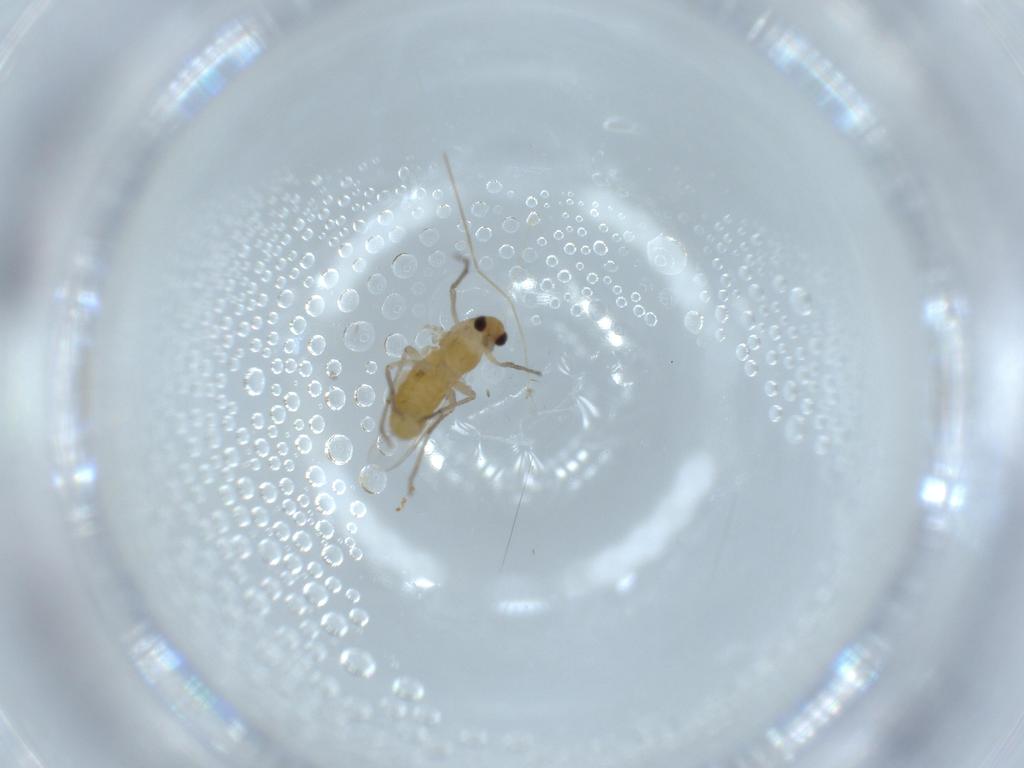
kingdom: Animalia
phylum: Arthropoda
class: Insecta
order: Diptera
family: Chironomidae
